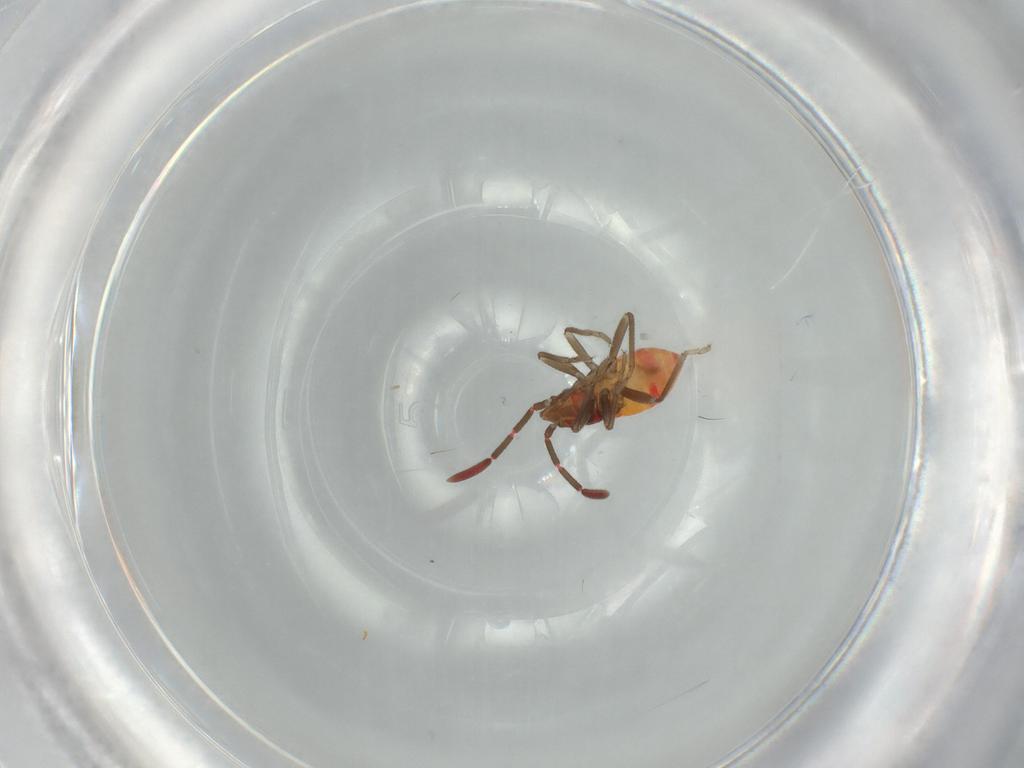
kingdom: Animalia
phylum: Arthropoda
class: Insecta
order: Hemiptera
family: Rhyparochromidae
